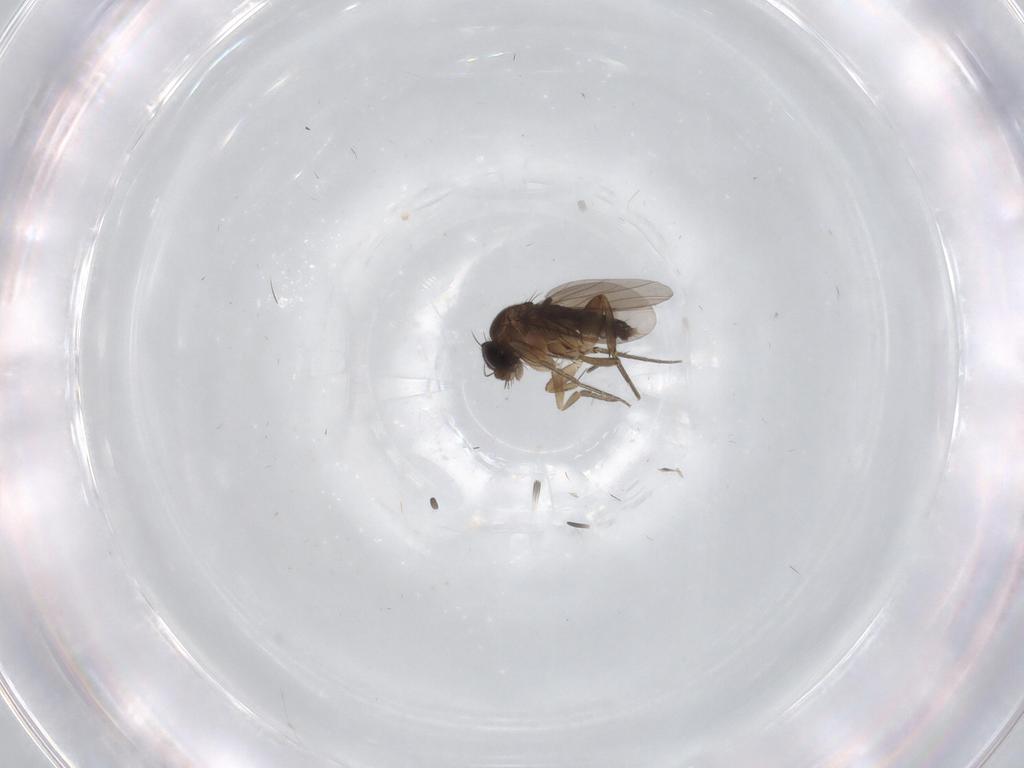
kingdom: Animalia
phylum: Arthropoda
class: Insecta
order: Diptera
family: Phoridae
